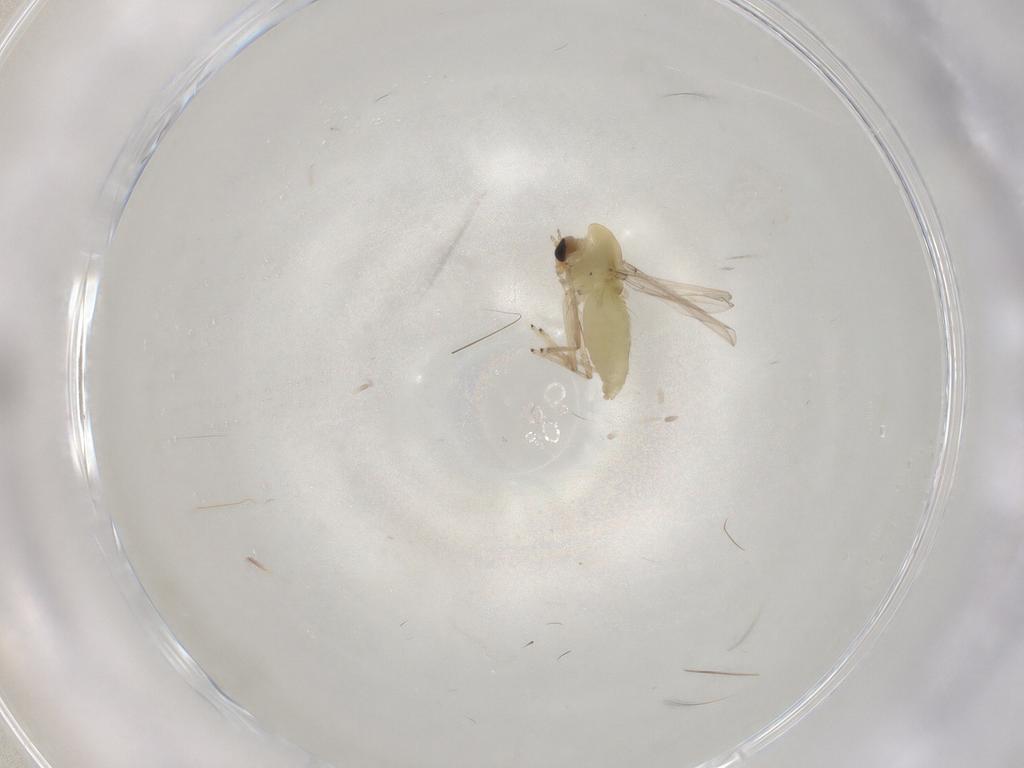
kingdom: Animalia
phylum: Arthropoda
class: Insecta
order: Diptera
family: Chironomidae
